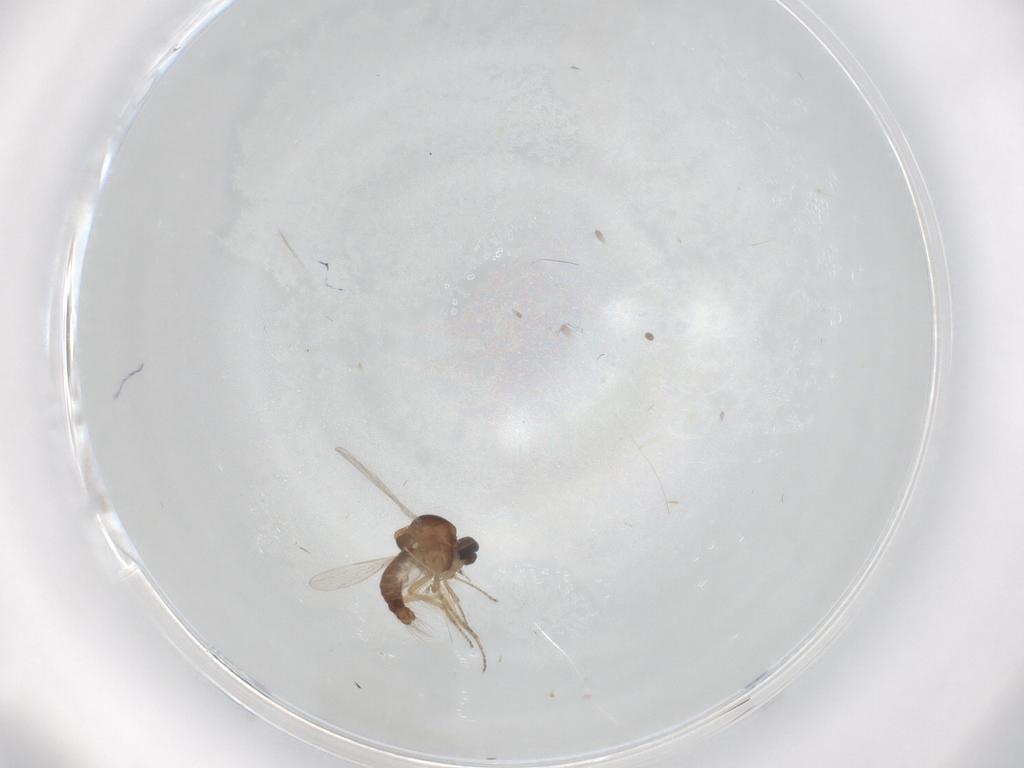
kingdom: Animalia
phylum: Arthropoda
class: Insecta
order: Diptera
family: Ceratopogonidae
